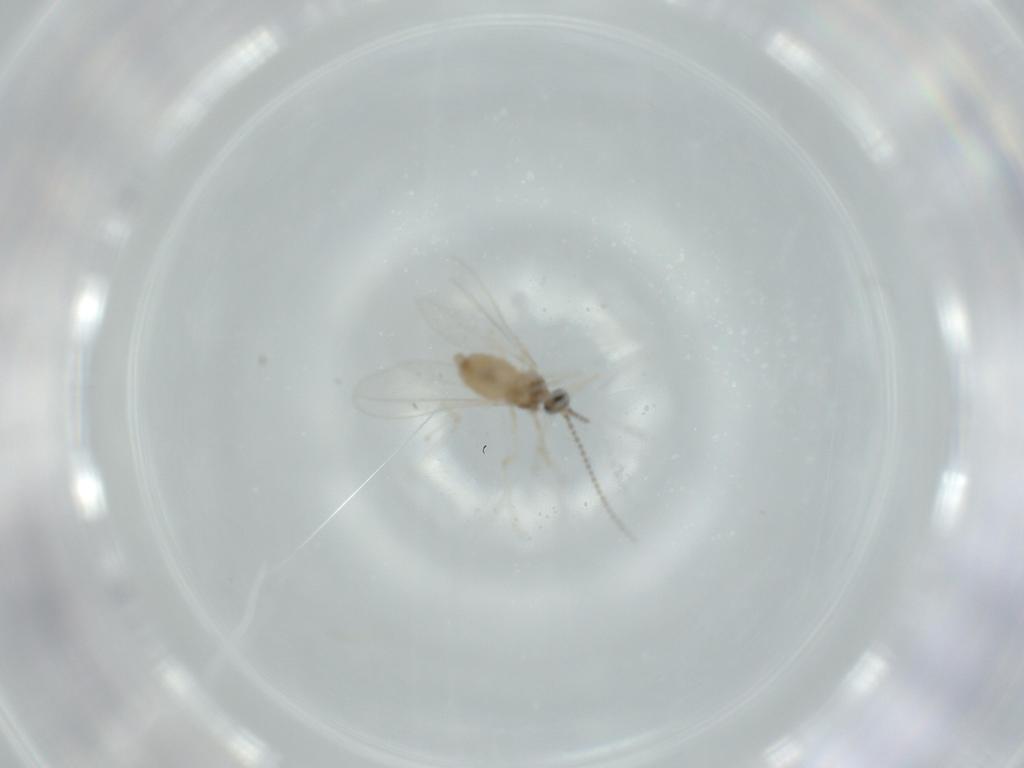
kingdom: Animalia
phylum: Arthropoda
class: Insecta
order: Diptera
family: Cecidomyiidae
